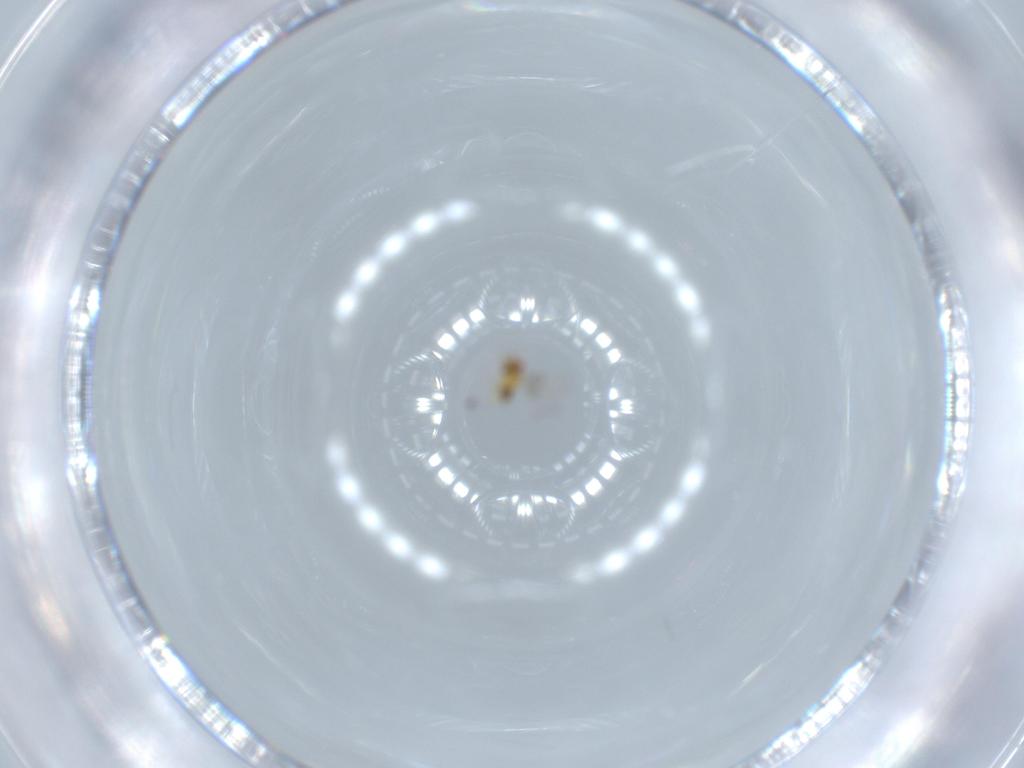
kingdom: Animalia
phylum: Arthropoda
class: Insecta
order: Hymenoptera
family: Trichogrammatidae
